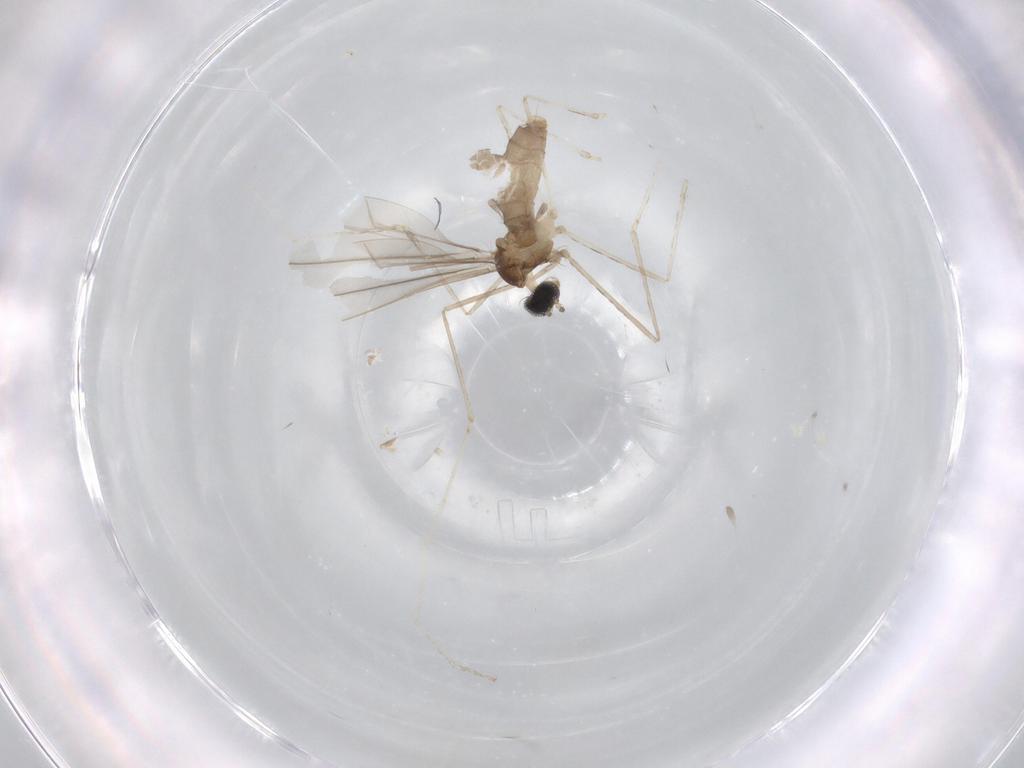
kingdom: Animalia
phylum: Arthropoda
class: Insecta
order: Diptera
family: Cecidomyiidae
